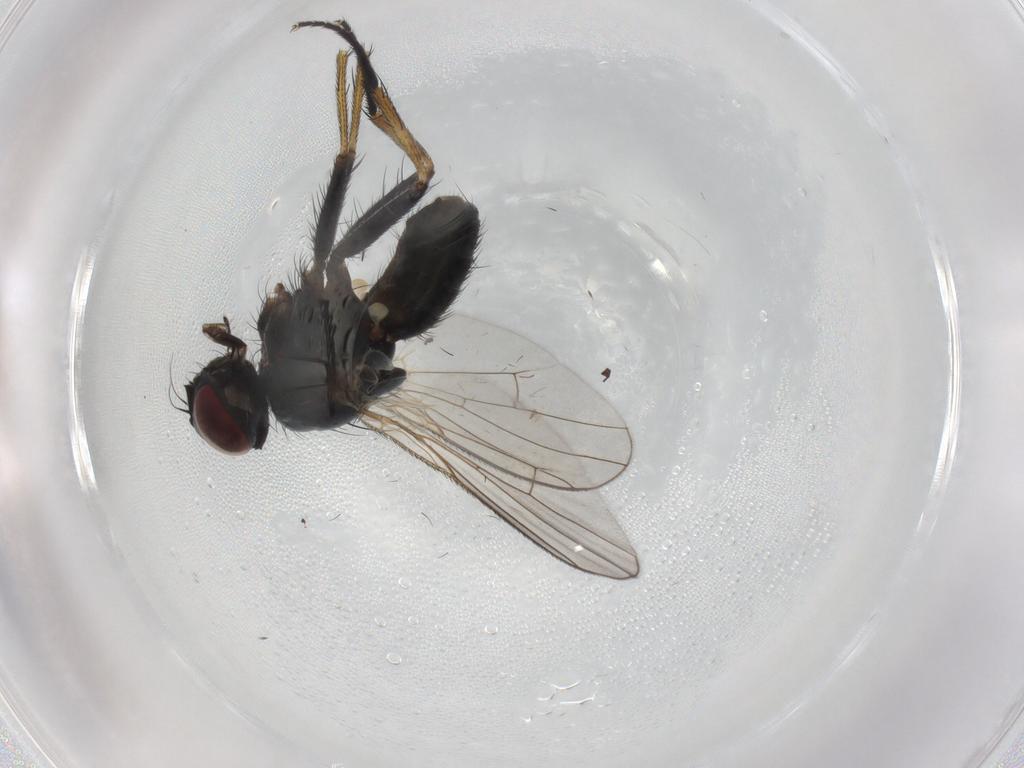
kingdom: Animalia
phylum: Arthropoda
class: Insecta
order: Diptera
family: Muscidae
